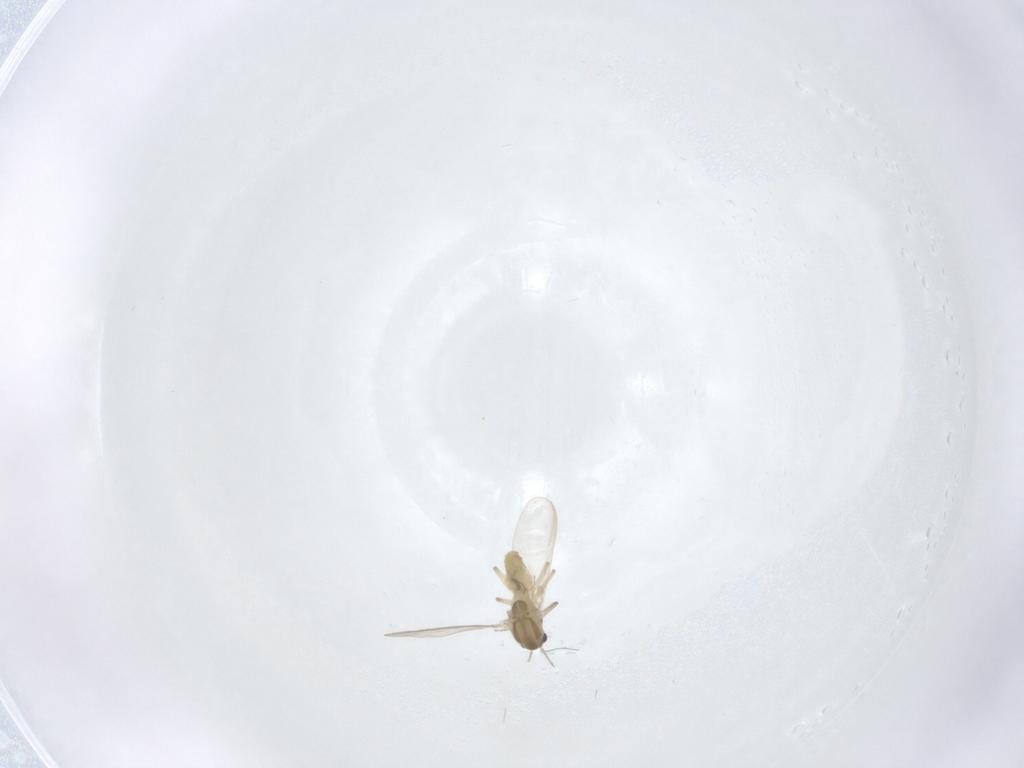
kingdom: Animalia
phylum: Arthropoda
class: Insecta
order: Diptera
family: Chironomidae
